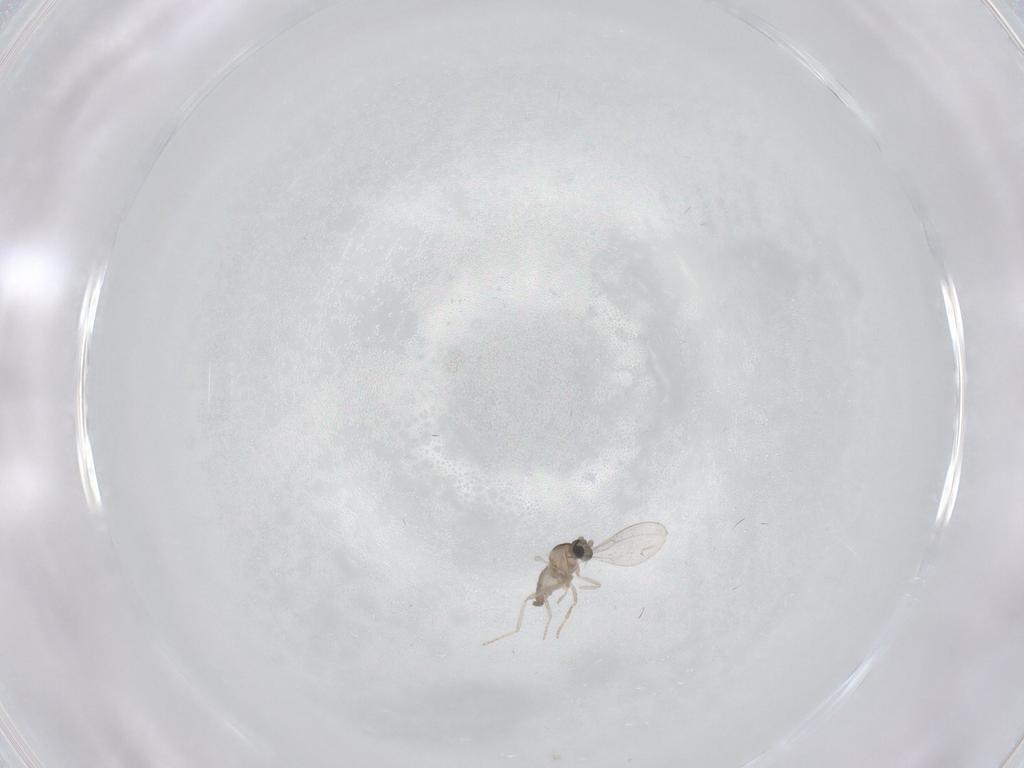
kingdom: Animalia
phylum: Arthropoda
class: Insecta
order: Diptera
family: Cecidomyiidae
